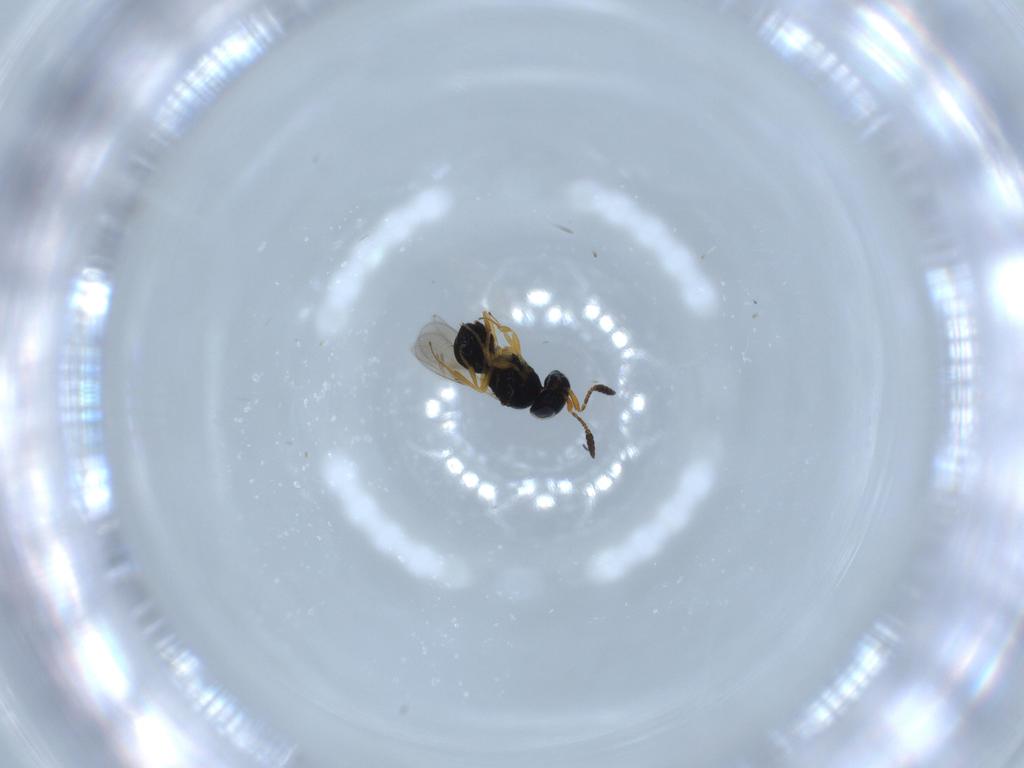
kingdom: Animalia
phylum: Arthropoda
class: Insecta
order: Hymenoptera
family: Scelionidae
